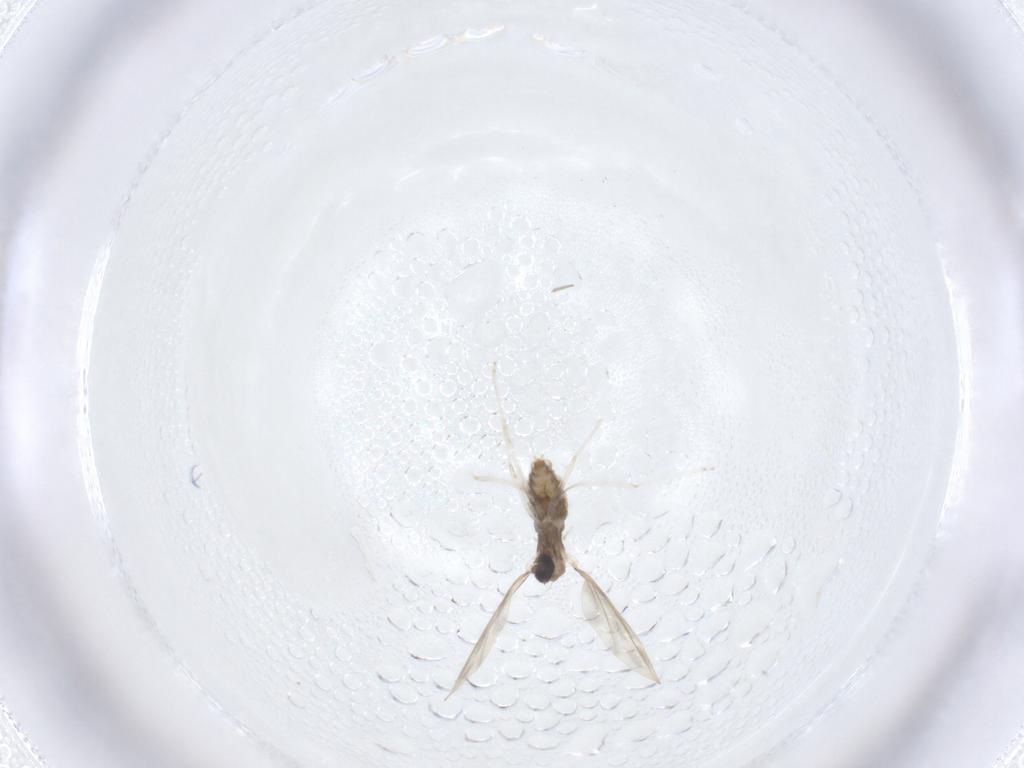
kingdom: Animalia
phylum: Arthropoda
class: Insecta
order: Diptera
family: Cecidomyiidae
